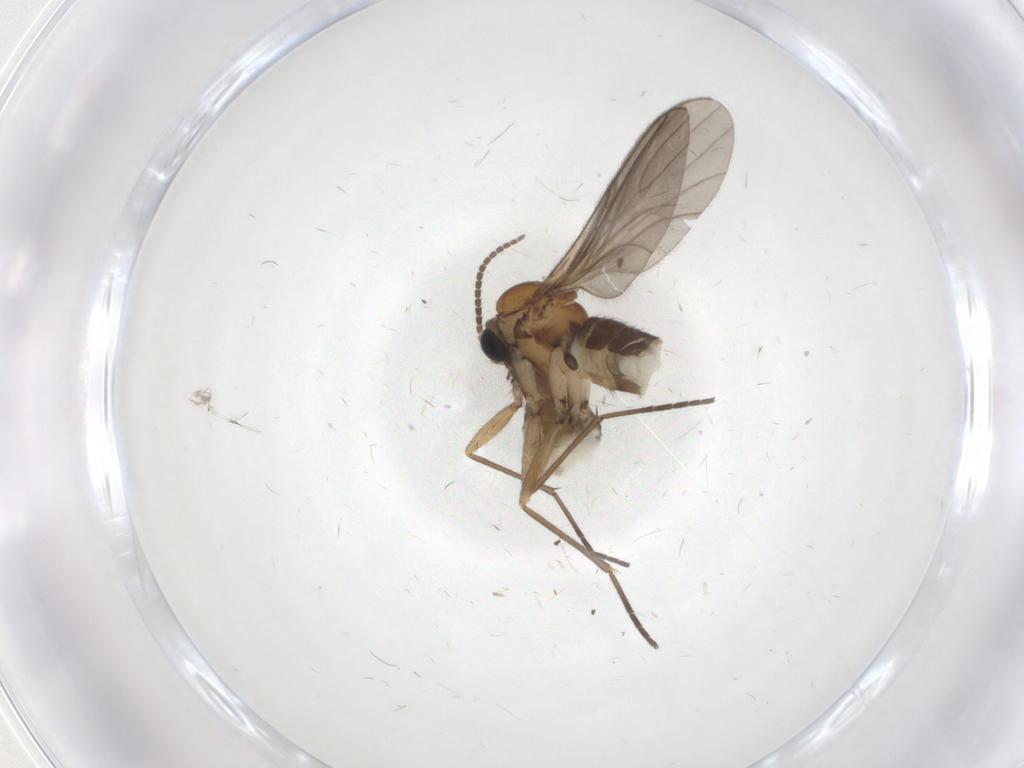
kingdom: Animalia
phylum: Arthropoda
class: Insecta
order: Diptera
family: Sciaridae
